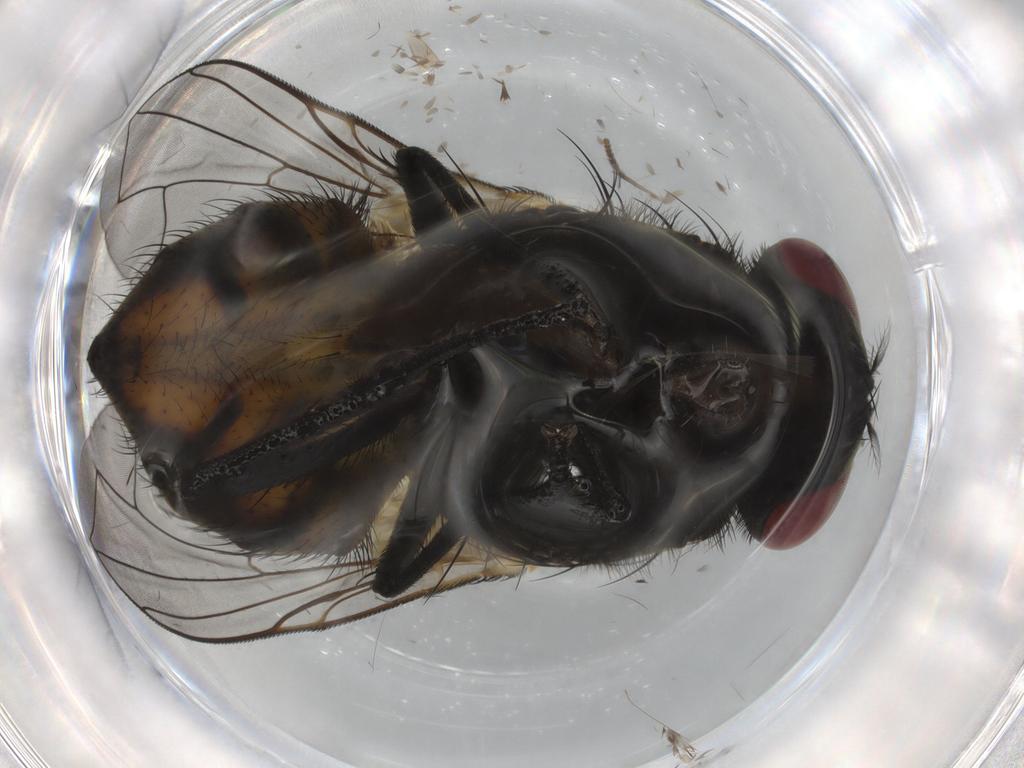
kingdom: Animalia
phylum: Arthropoda
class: Insecta
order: Diptera
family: Muscidae
